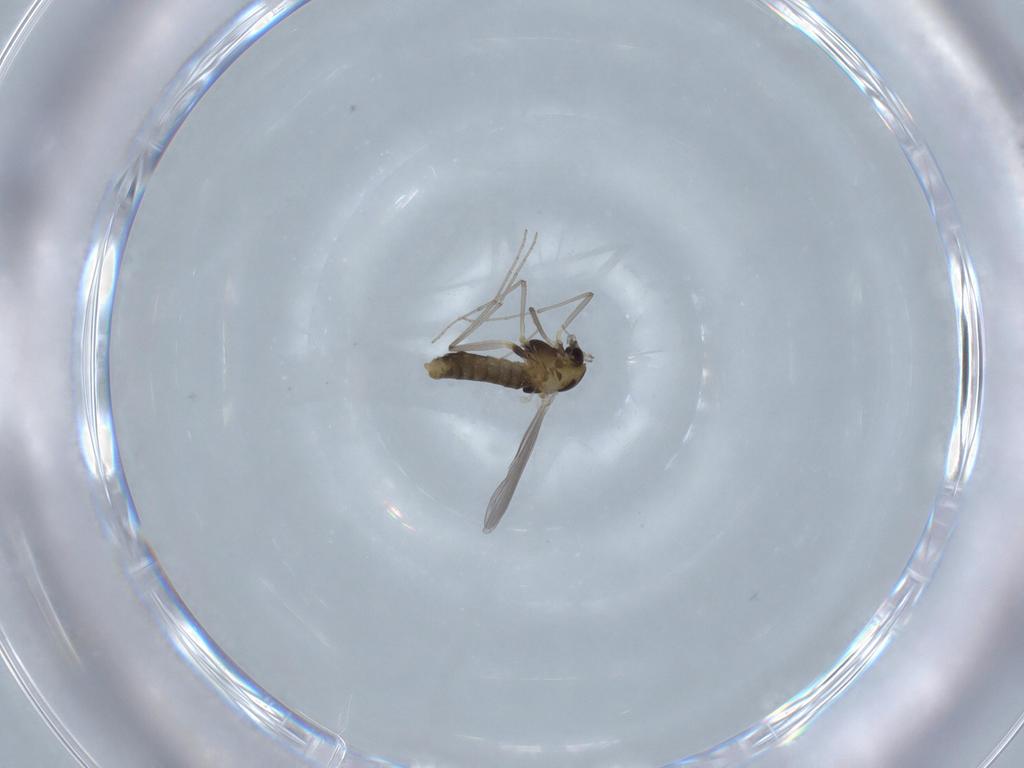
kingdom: Animalia
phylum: Arthropoda
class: Insecta
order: Diptera
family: Chironomidae
